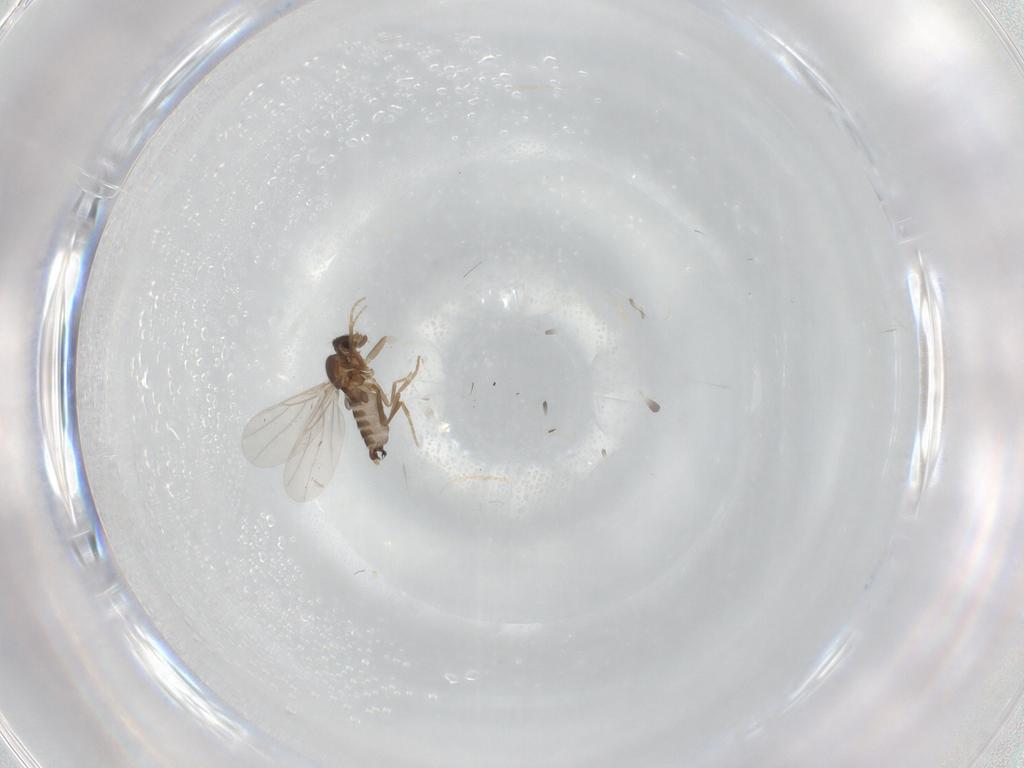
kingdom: Animalia
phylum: Arthropoda
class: Insecta
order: Diptera
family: Phoridae
